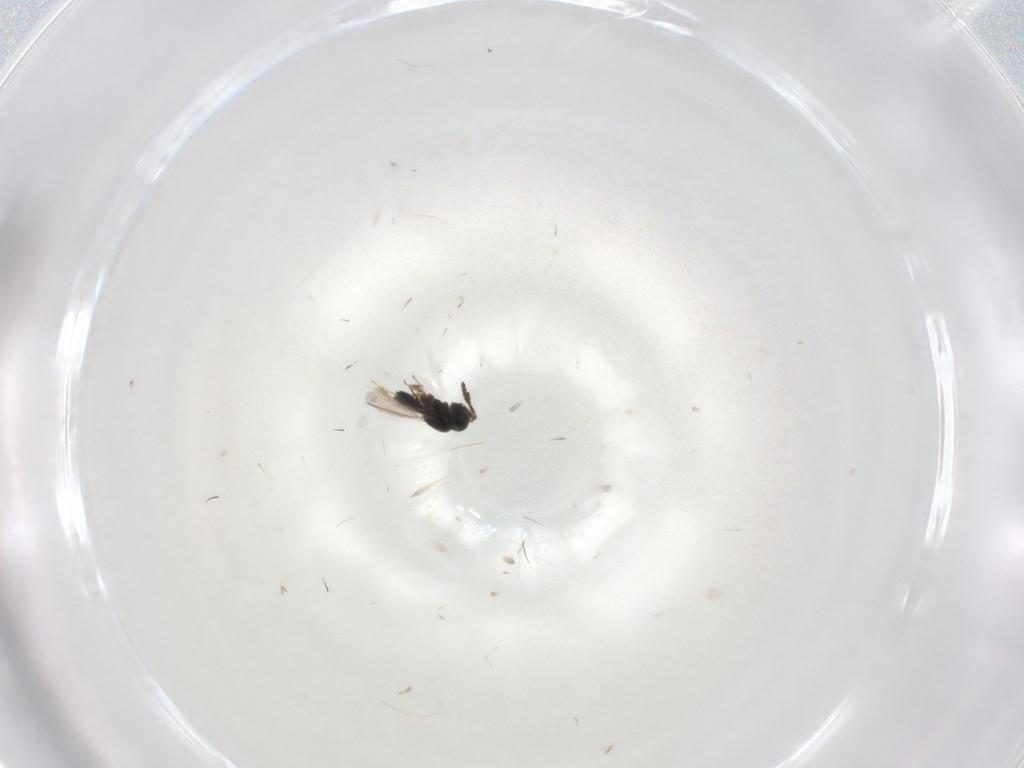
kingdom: Animalia
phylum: Arthropoda
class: Insecta
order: Hymenoptera
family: Scelionidae
